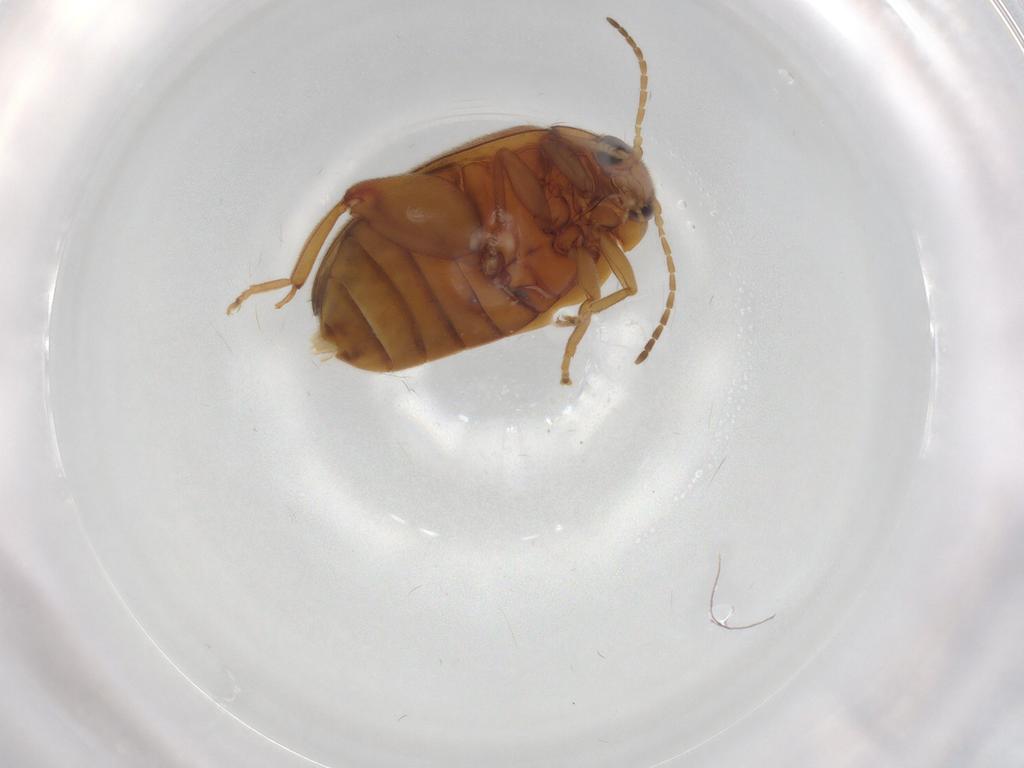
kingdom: Animalia
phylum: Arthropoda
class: Insecta
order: Coleoptera
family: Scirtidae
